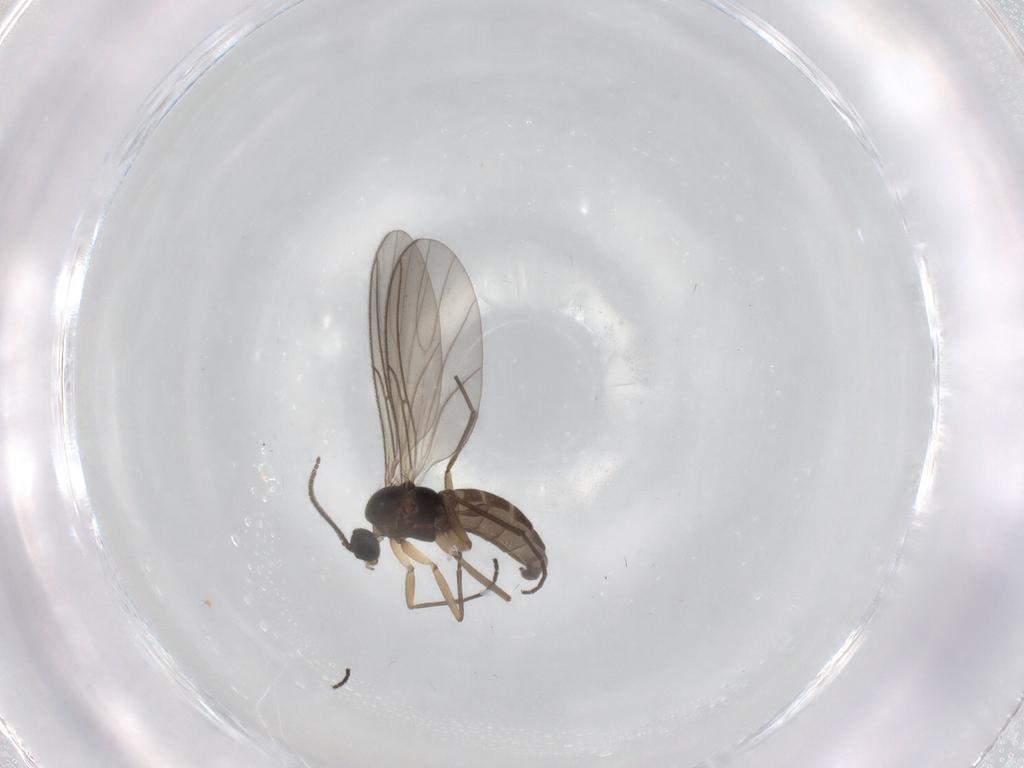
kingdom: Animalia
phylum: Arthropoda
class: Insecta
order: Diptera
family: Sciaridae
